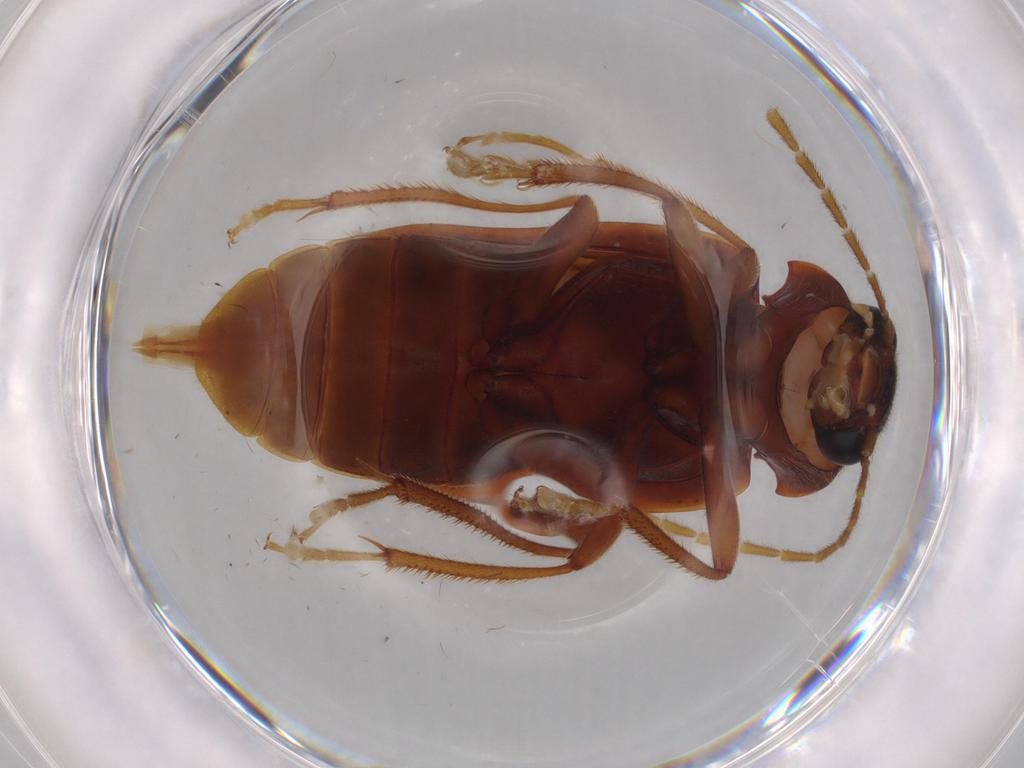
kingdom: Animalia
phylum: Arthropoda
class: Insecta
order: Coleoptera
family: Ptilodactylidae
